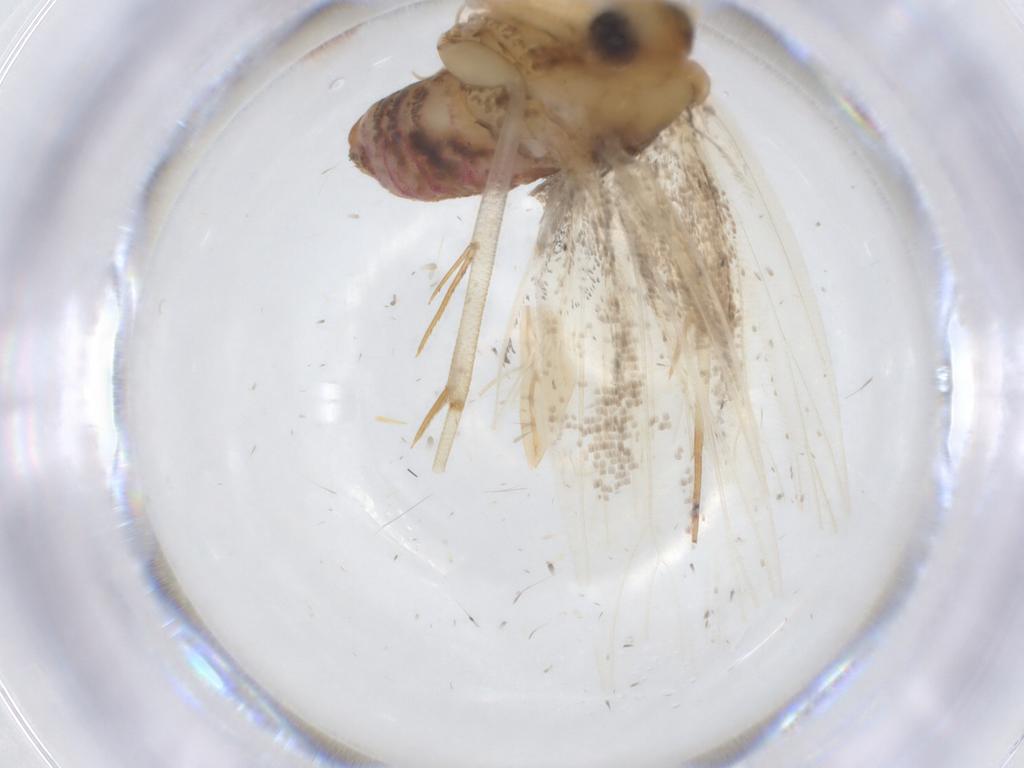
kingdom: Animalia
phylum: Arthropoda
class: Insecta
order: Lepidoptera
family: Lecithoceridae
